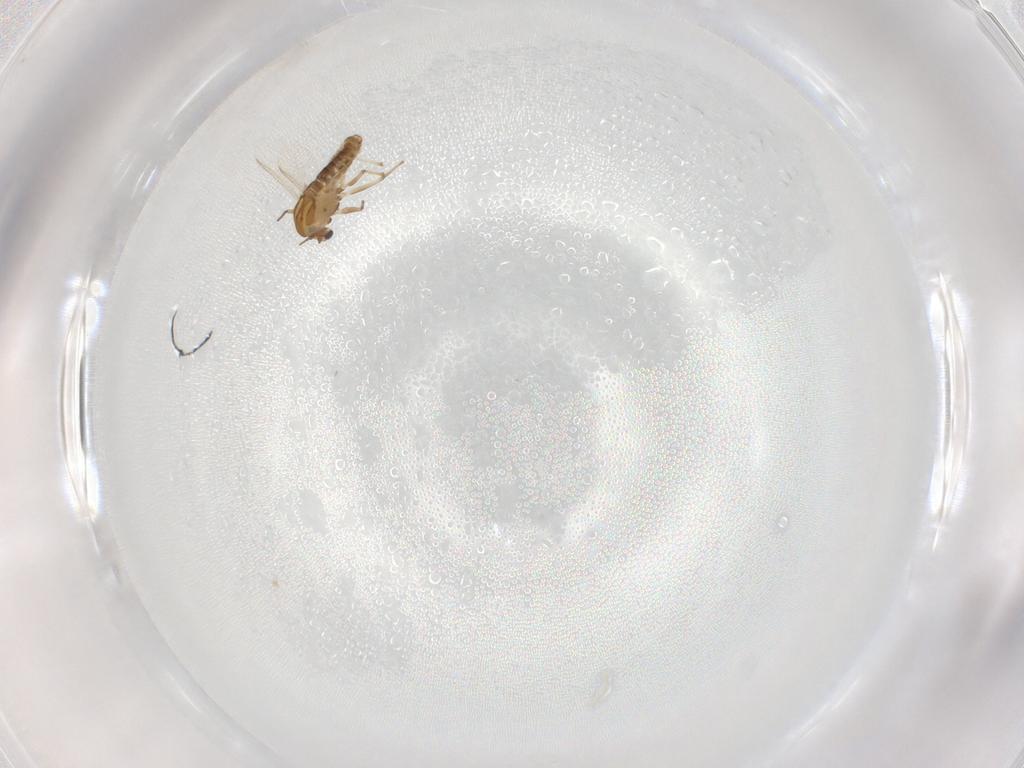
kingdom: Animalia
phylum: Arthropoda
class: Insecta
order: Diptera
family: Chironomidae
